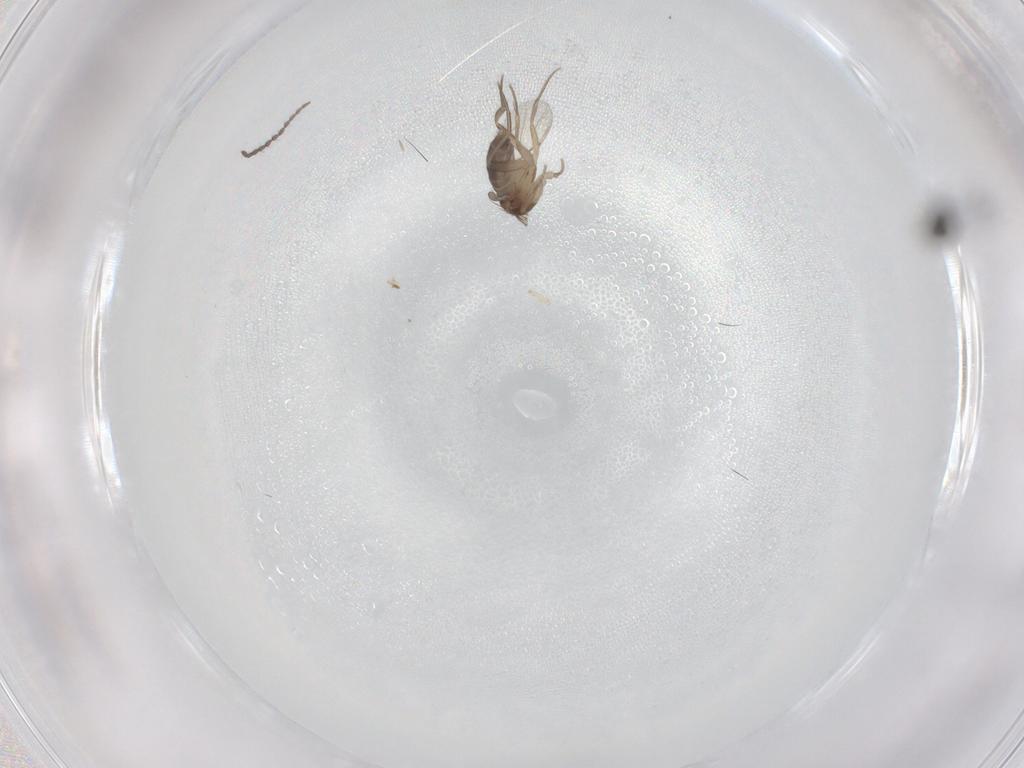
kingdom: Animalia
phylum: Arthropoda
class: Insecta
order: Diptera
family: Phoridae
